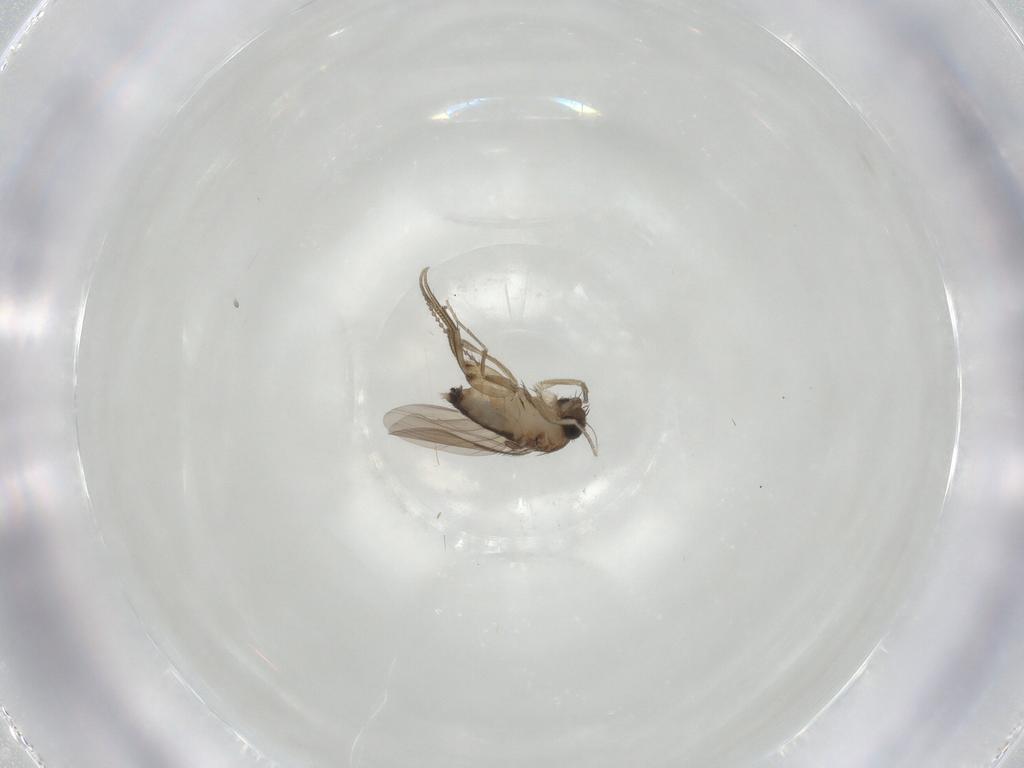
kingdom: Animalia
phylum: Arthropoda
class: Insecta
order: Diptera
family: Phoridae
